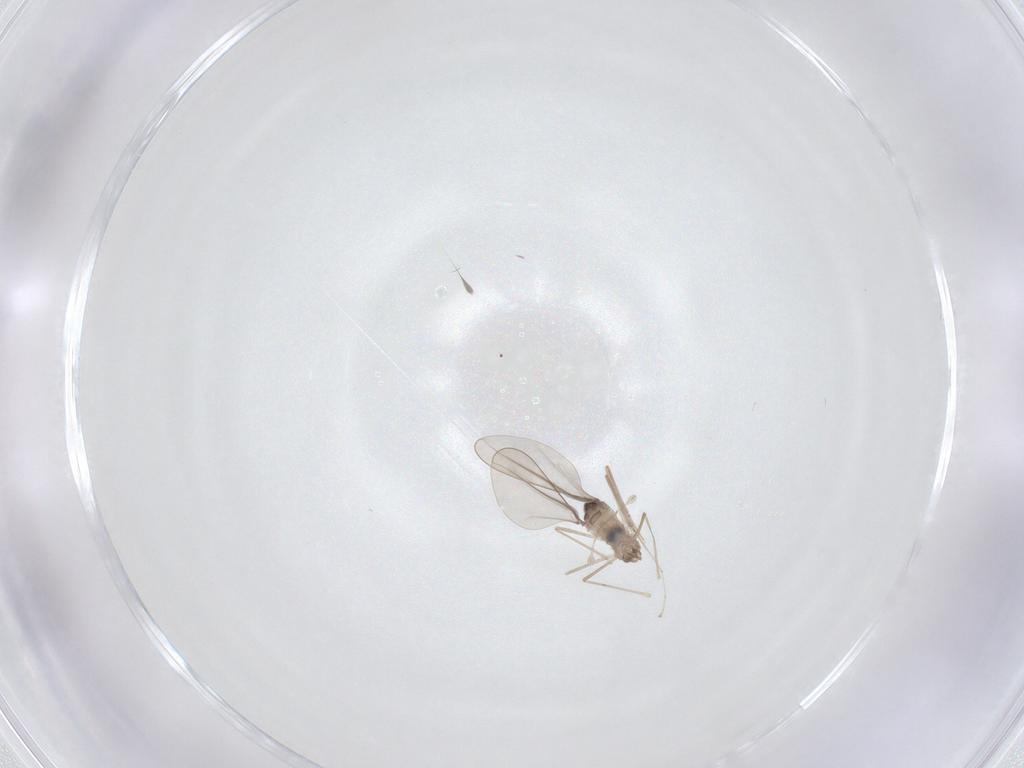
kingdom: Animalia
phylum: Arthropoda
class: Insecta
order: Diptera
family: Cecidomyiidae
